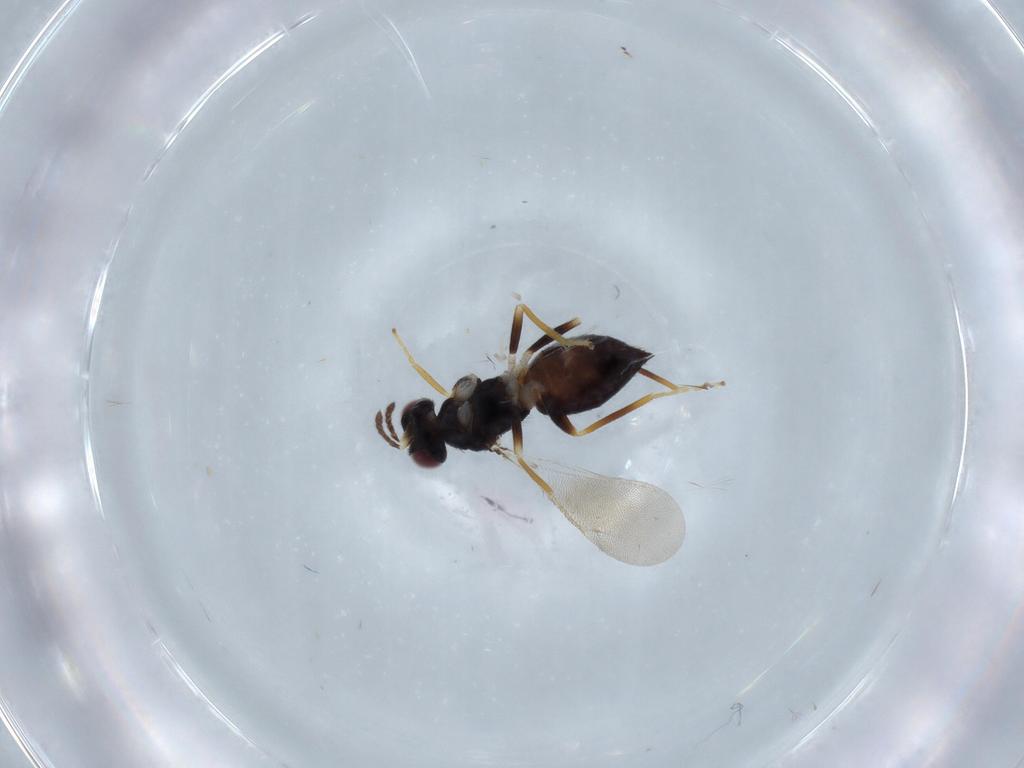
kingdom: Animalia
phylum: Arthropoda
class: Insecta
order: Hymenoptera
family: Eulophidae
